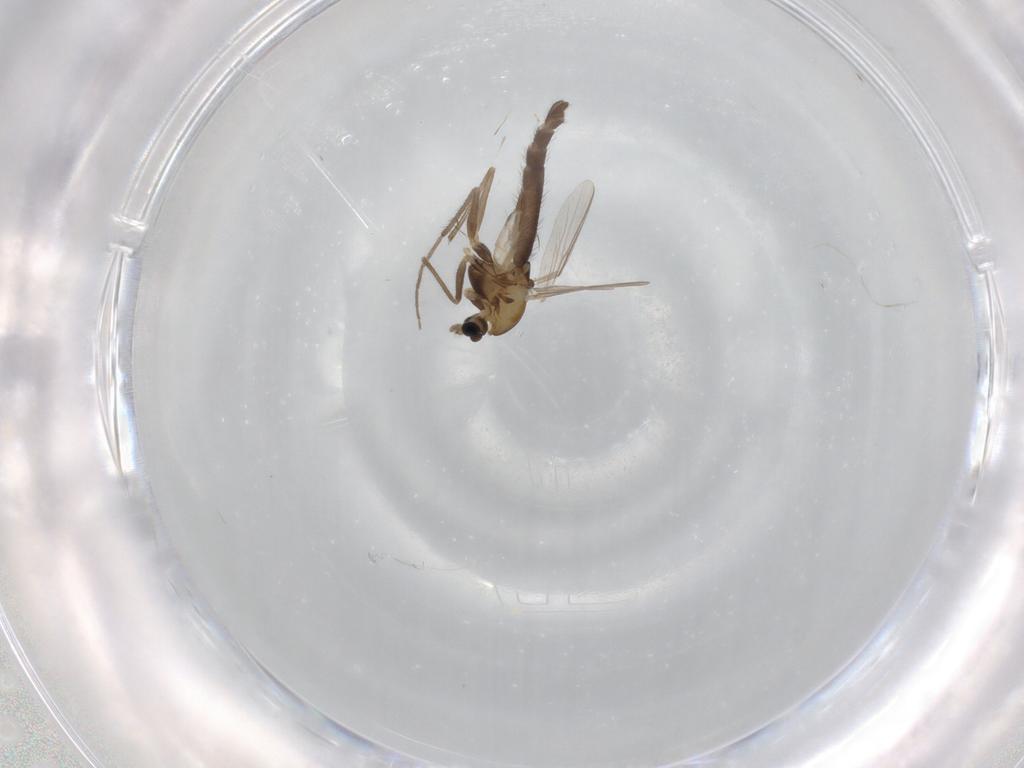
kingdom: Animalia
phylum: Arthropoda
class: Insecta
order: Diptera
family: Chironomidae
